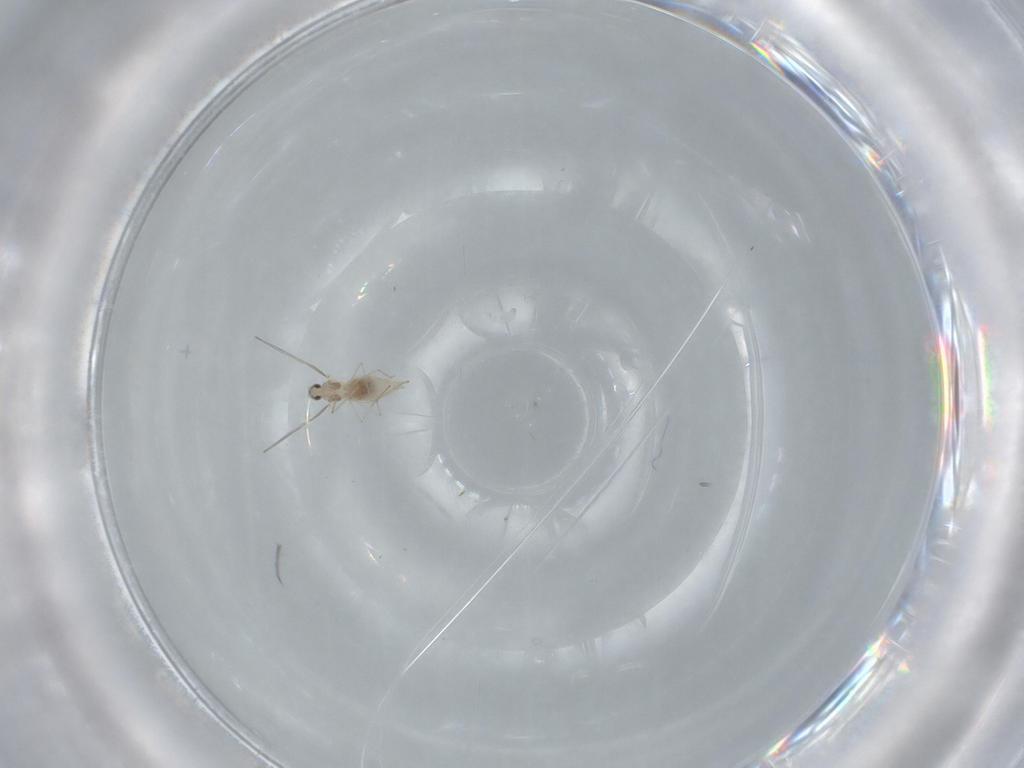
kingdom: Animalia
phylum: Arthropoda
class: Insecta
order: Diptera
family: Cecidomyiidae
